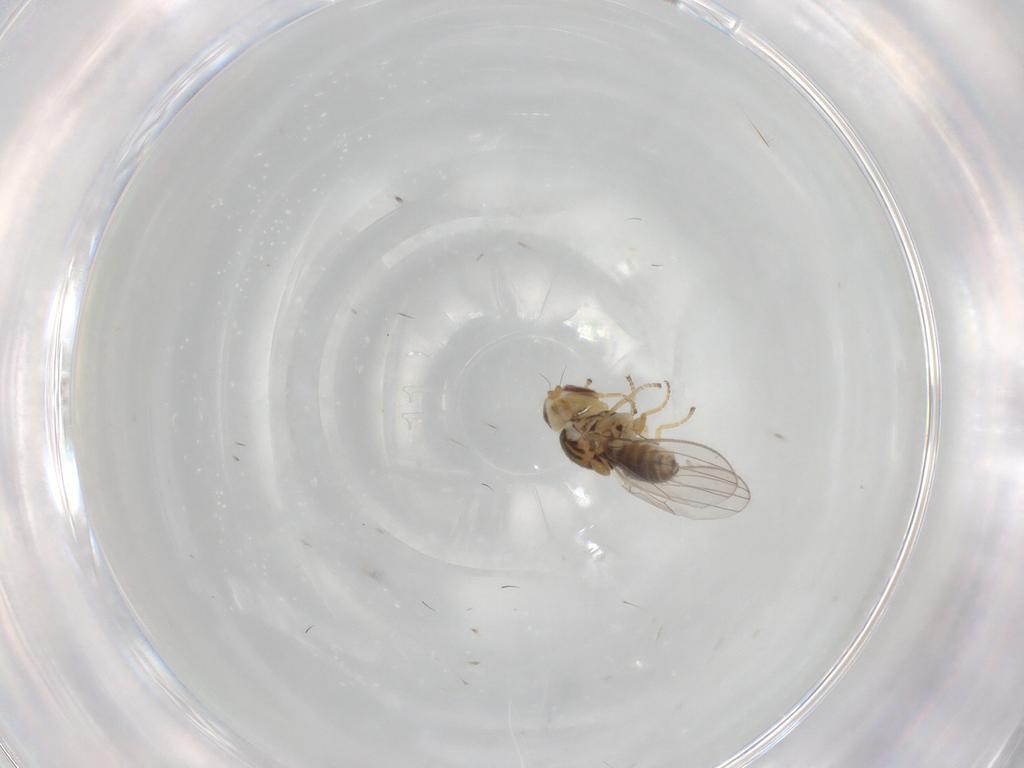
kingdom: Animalia
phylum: Arthropoda
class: Insecta
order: Diptera
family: Chyromyidae
